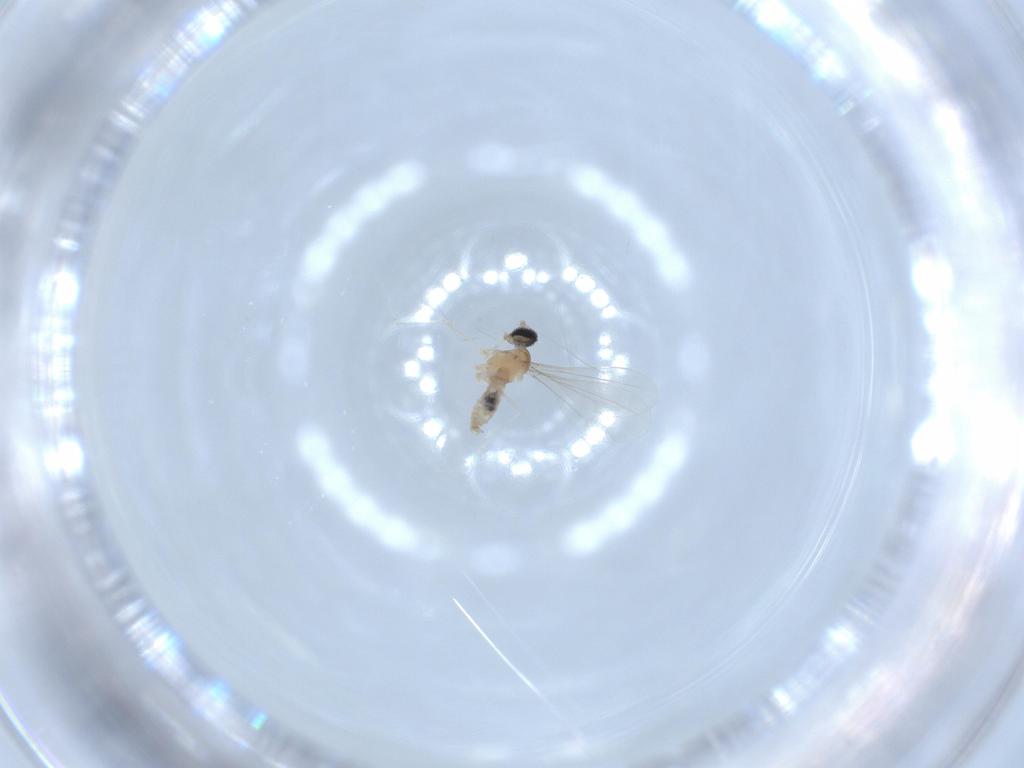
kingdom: Animalia
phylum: Arthropoda
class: Insecta
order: Diptera
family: Cecidomyiidae
